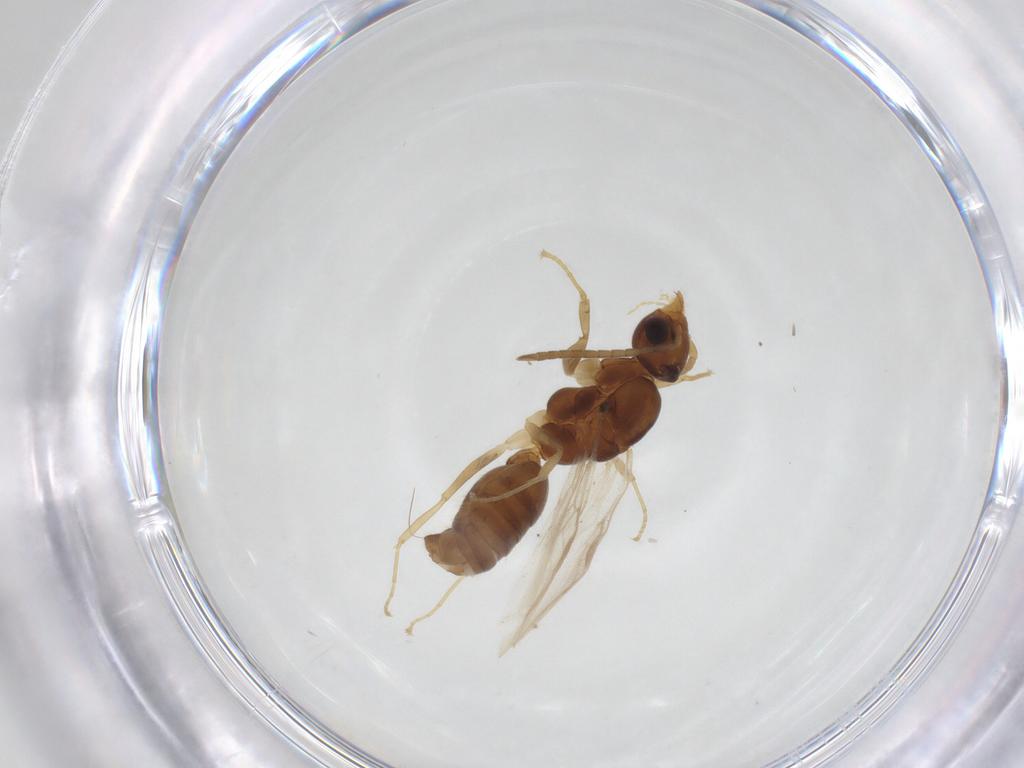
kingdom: Animalia
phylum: Arthropoda
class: Insecta
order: Hymenoptera
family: Formicidae
